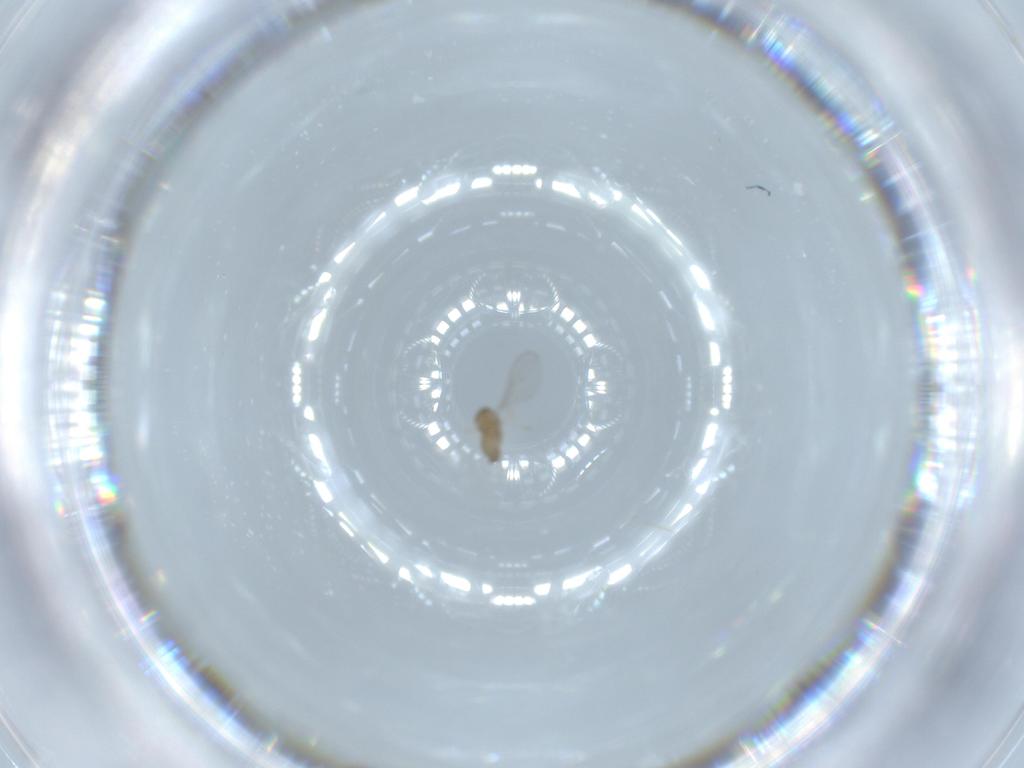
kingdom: Animalia
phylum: Arthropoda
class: Insecta
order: Diptera
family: Cecidomyiidae
